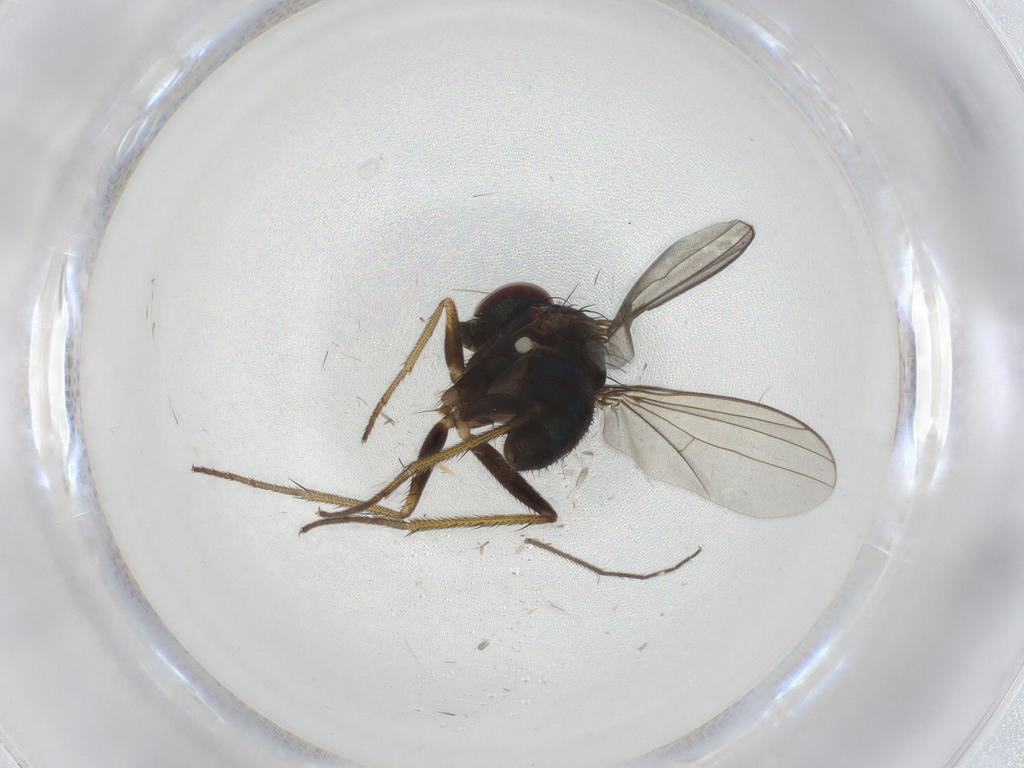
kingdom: Animalia
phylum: Arthropoda
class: Insecta
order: Diptera
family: Dolichopodidae
